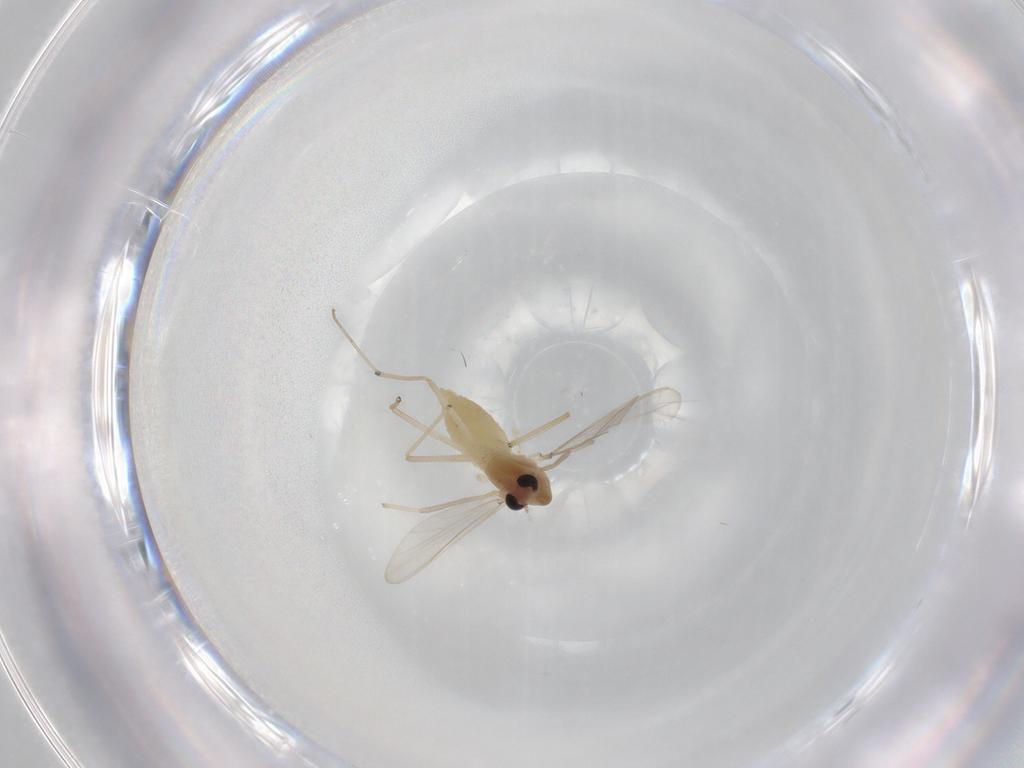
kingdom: Animalia
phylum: Arthropoda
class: Insecta
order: Diptera
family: Chironomidae
